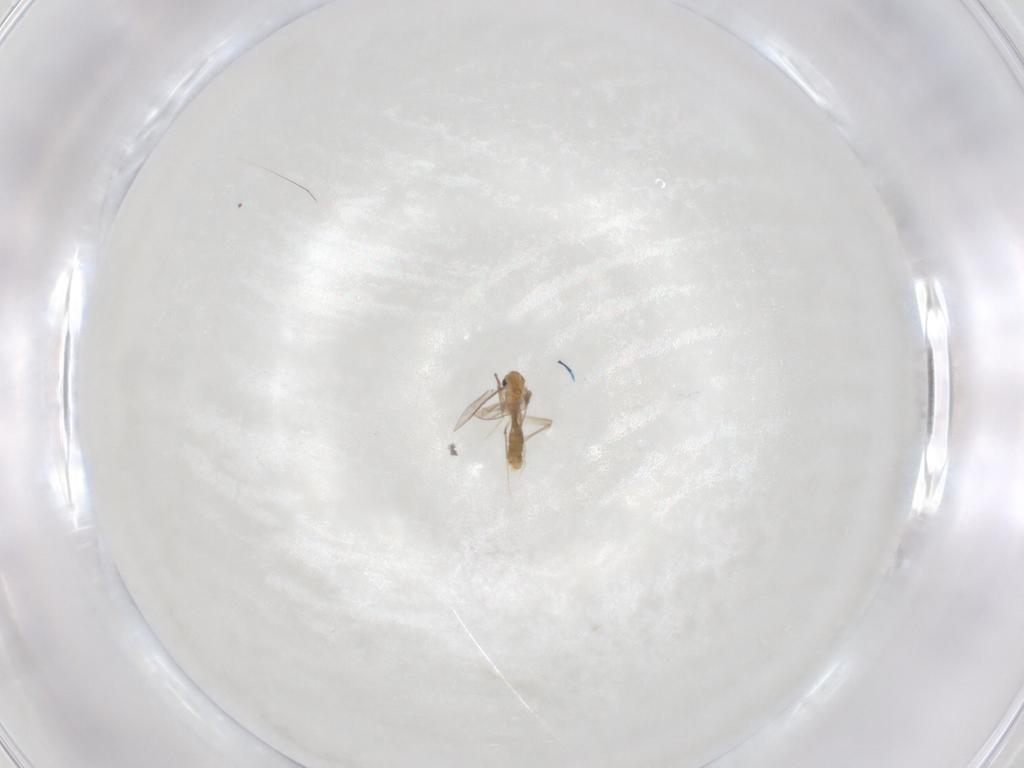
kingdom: Animalia
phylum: Arthropoda
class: Insecta
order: Diptera
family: Chironomidae
